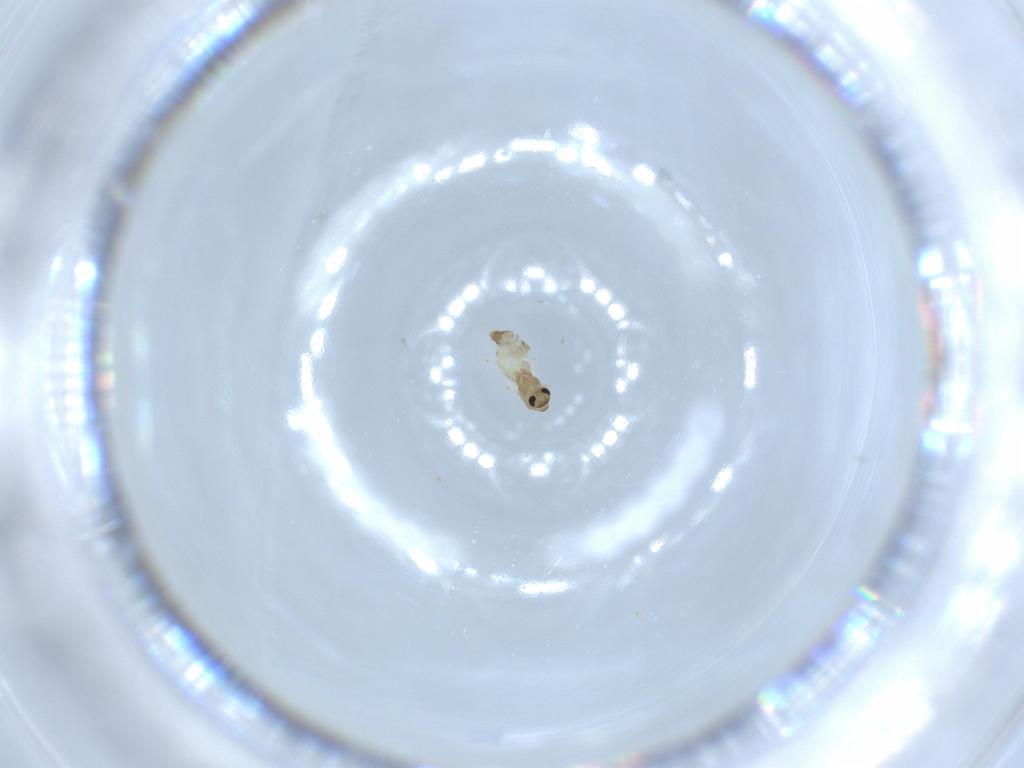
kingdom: Animalia
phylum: Arthropoda
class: Insecta
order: Diptera
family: Chironomidae
